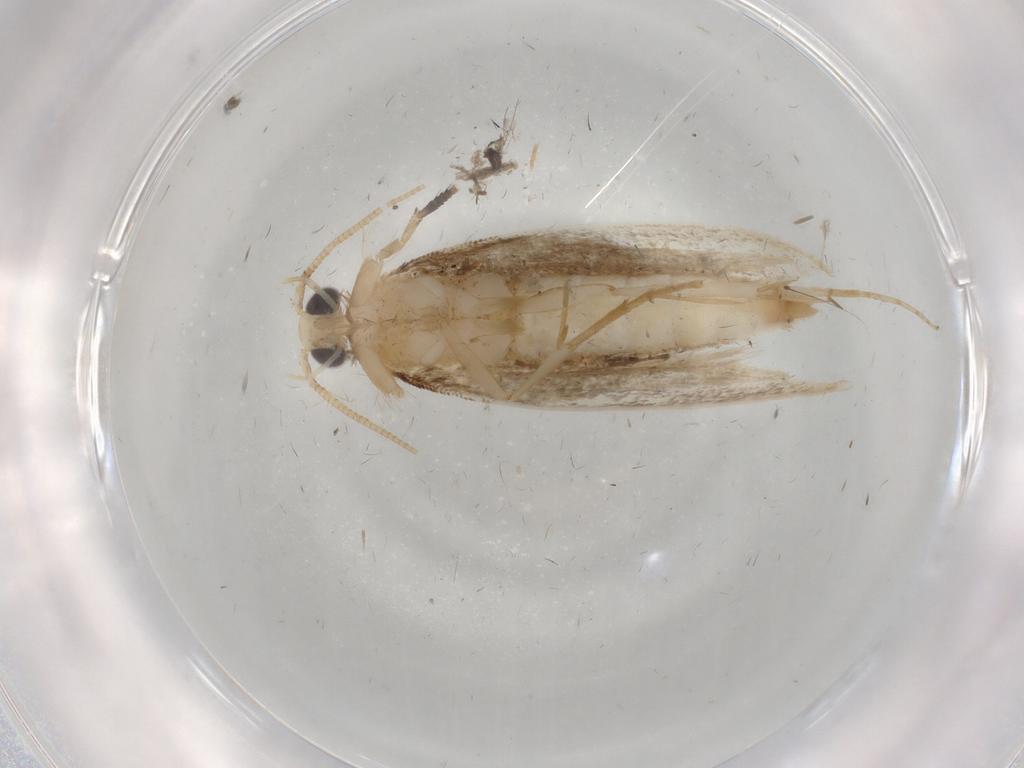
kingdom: Animalia
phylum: Arthropoda
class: Insecta
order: Lepidoptera
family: Tineidae
